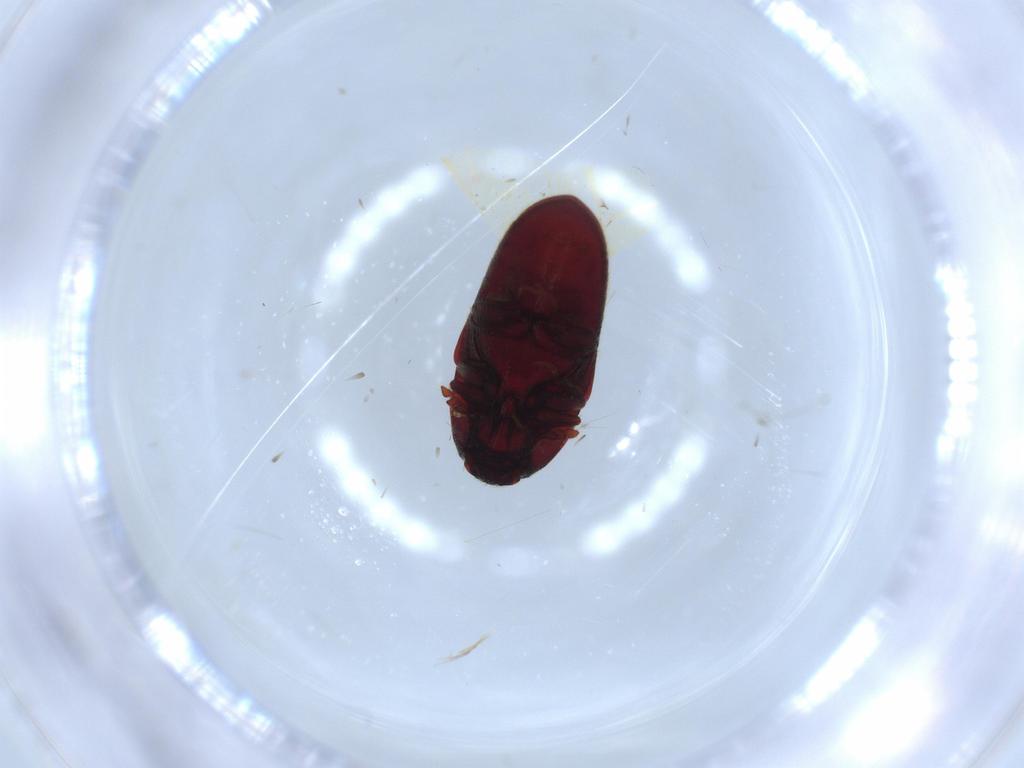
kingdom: Animalia
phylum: Arthropoda
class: Insecta
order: Coleoptera
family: Throscidae
